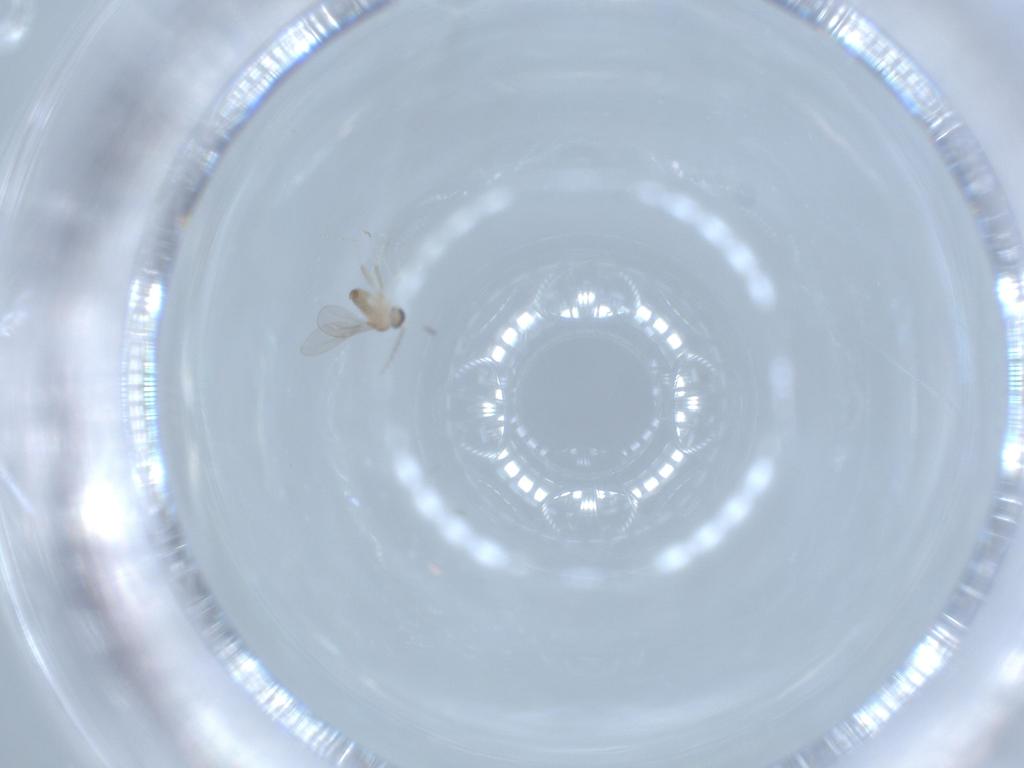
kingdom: Animalia
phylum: Arthropoda
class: Insecta
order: Diptera
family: Cecidomyiidae
